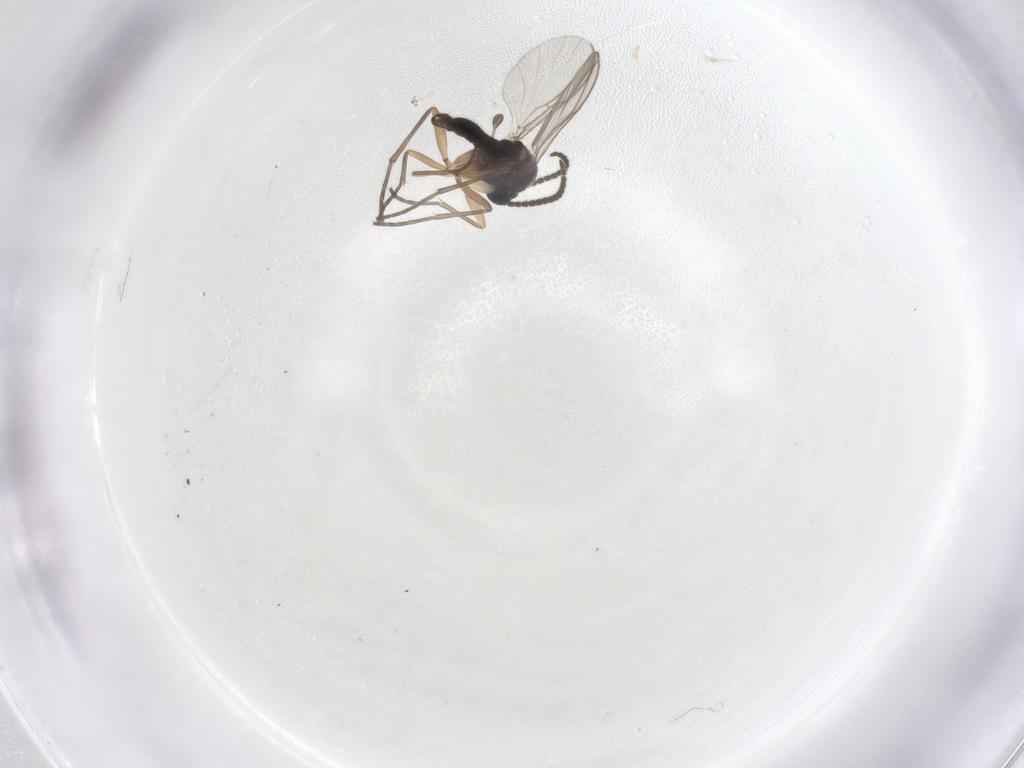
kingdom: Animalia
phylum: Arthropoda
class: Insecta
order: Diptera
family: Sciaridae
